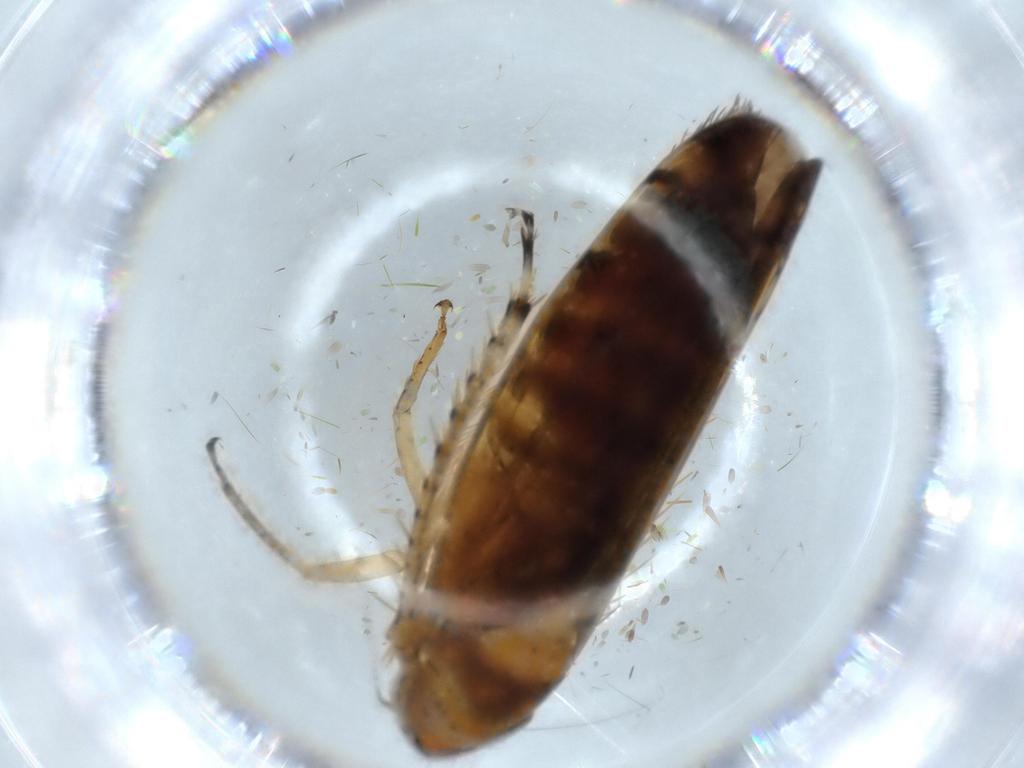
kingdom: Animalia
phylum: Arthropoda
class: Insecta
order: Hemiptera
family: Cicadellidae
